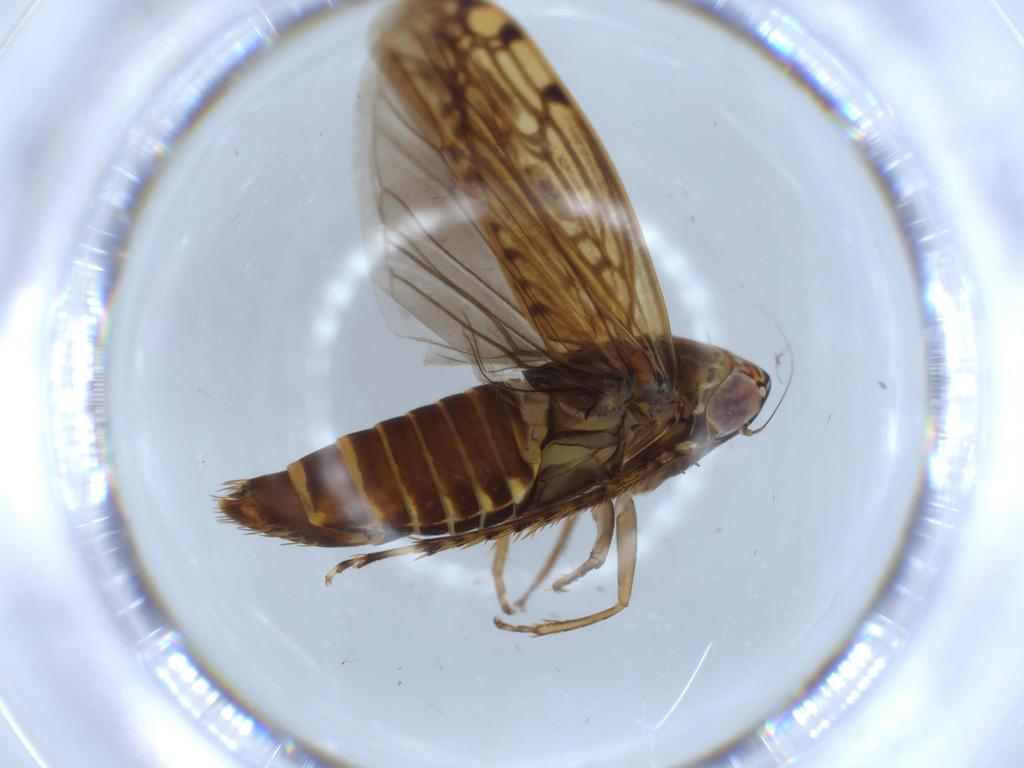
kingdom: Animalia
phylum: Arthropoda
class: Insecta
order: Hemiptera
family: Cicadellidae
